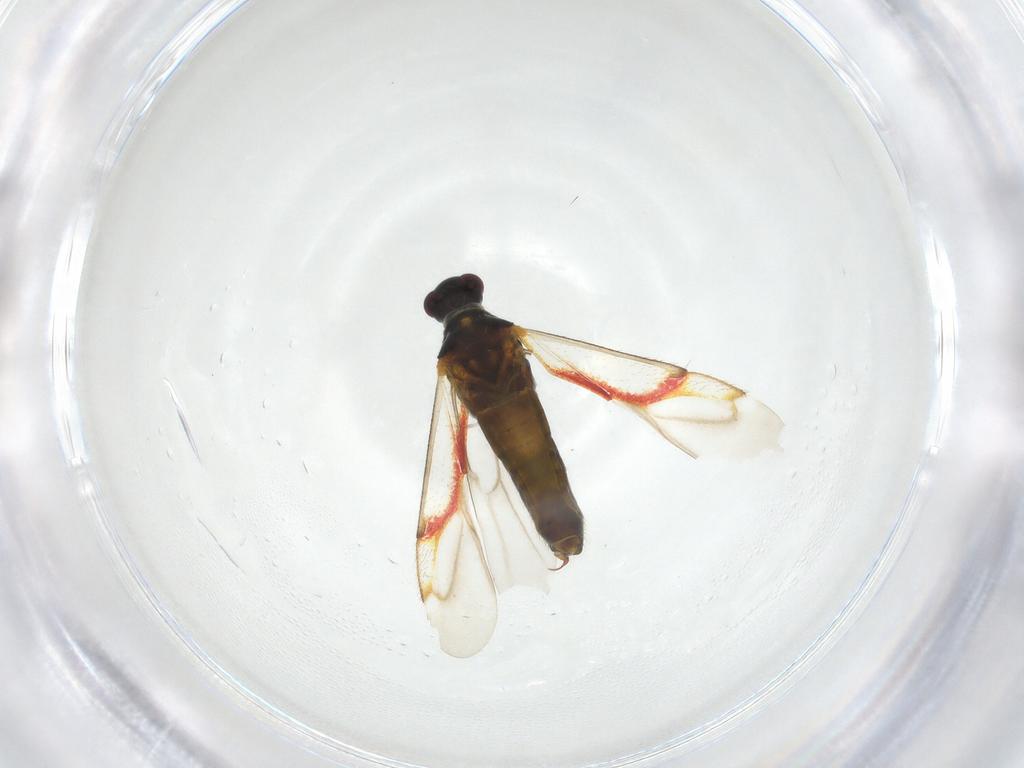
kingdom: Animalia
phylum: Arthropoda
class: Insecta
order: Hemiptera
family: Miridae
